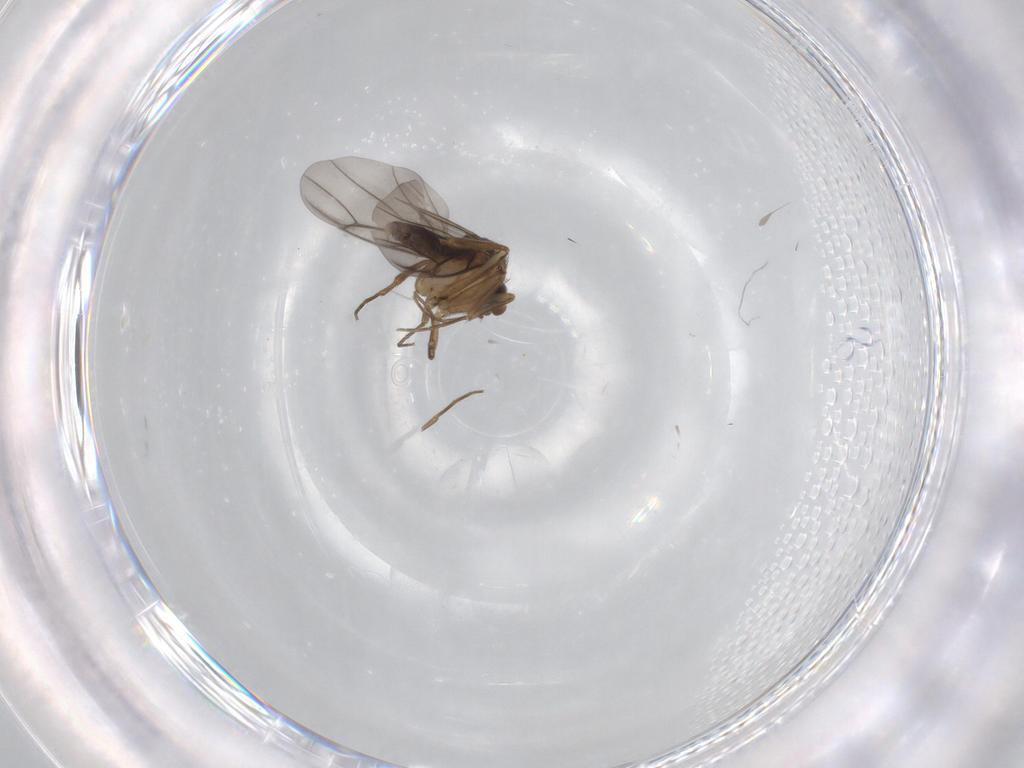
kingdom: Animalia
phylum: Arthropoda
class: Insecta
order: Diptera
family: Phoridae
